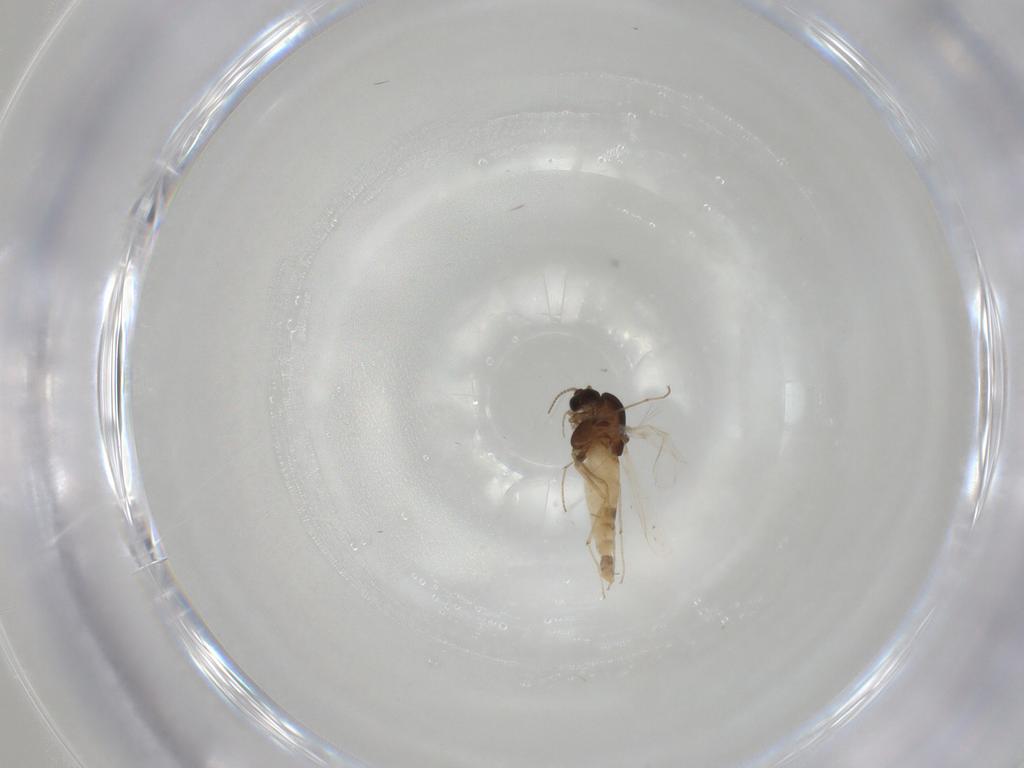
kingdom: Animalia
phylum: Arthropoda
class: Insecta
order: Diptera
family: Chironomidae
